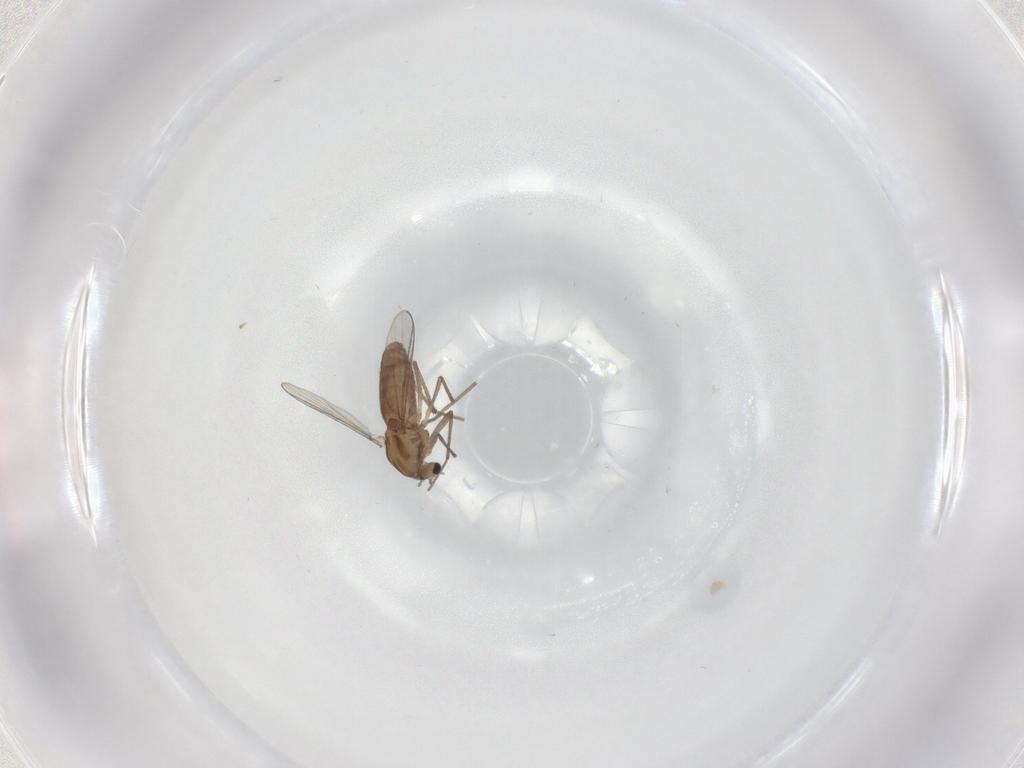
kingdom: Animalia
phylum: Arthropoda
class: Insecta
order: Diptera
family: Chironomidae
